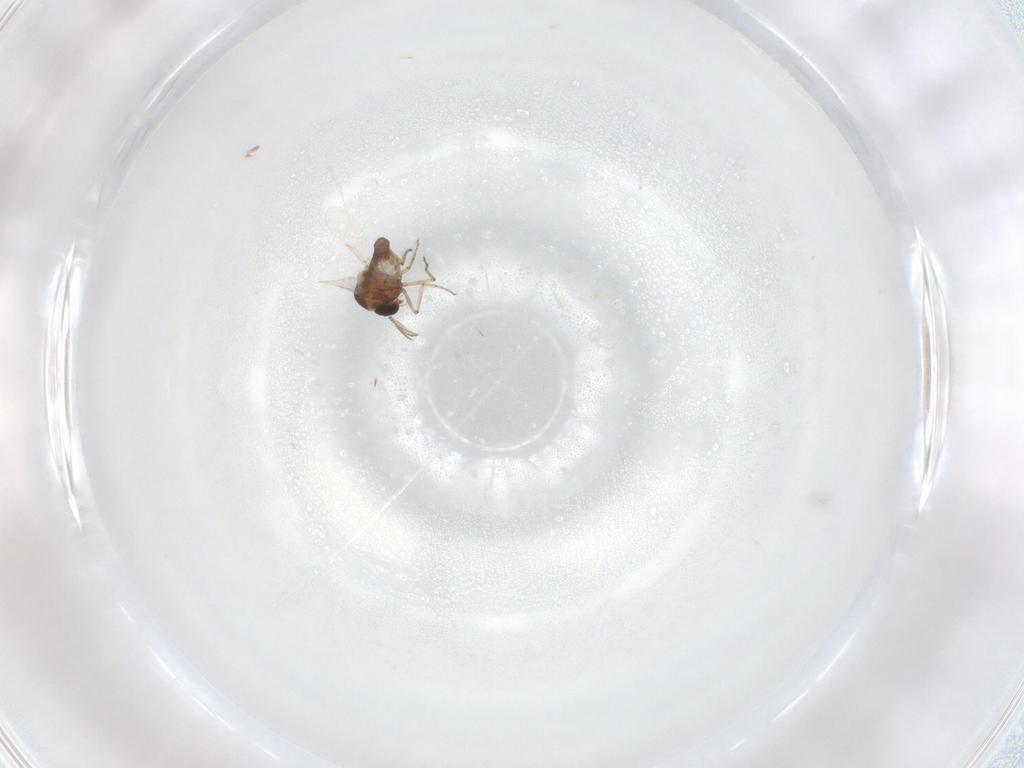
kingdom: Animalia
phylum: Arthropoda
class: Insecta
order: Diptera
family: Ceratopogonidae
